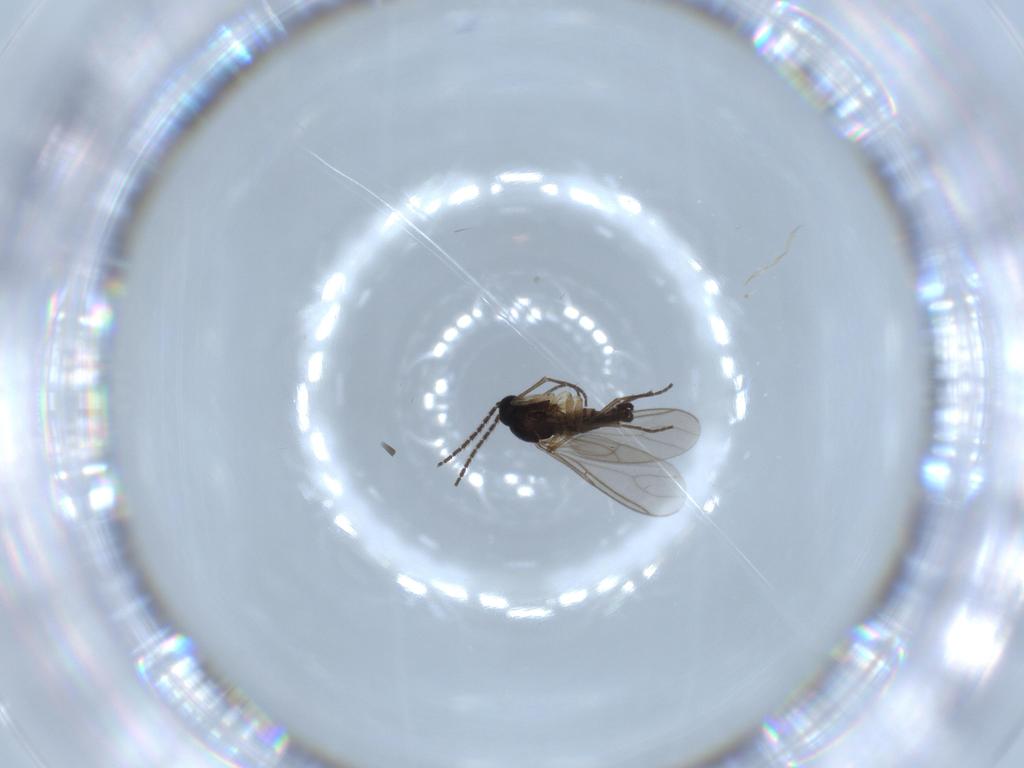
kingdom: Animalia
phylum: Arthropoda
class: Insecta
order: Diptera
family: Sciaridae
